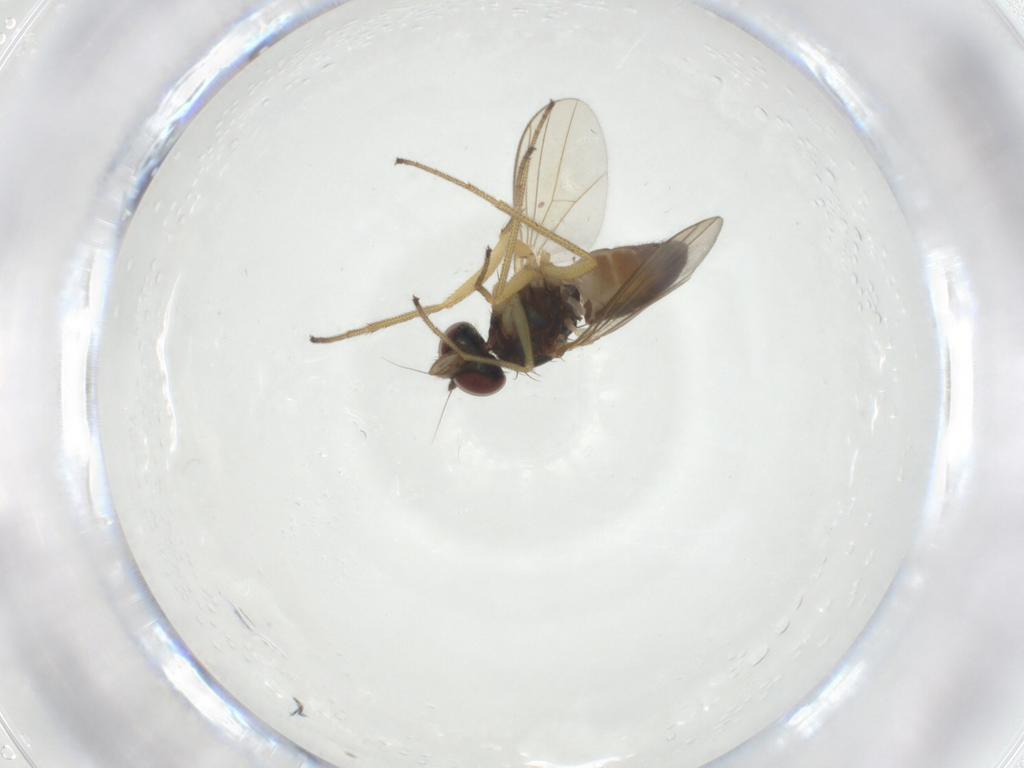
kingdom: Animalia
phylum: Arthropoda
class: Insecta
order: Diptera
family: Dolichopodidae
